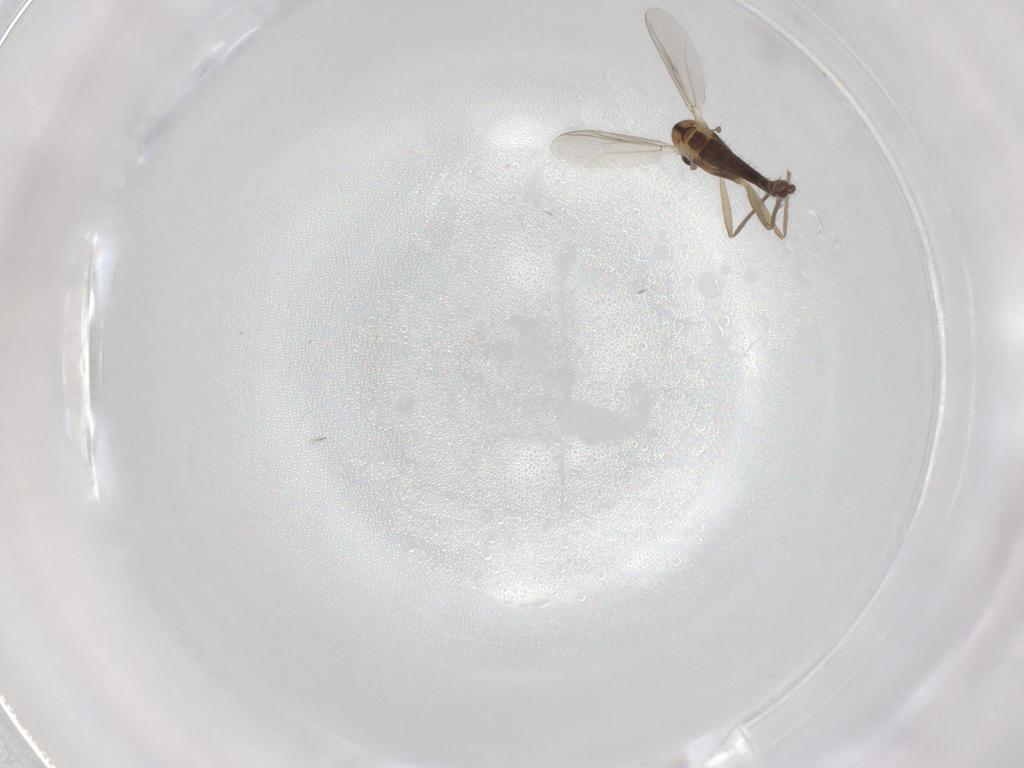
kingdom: Animalia
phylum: Arthropoda
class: Insecta
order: Diptera
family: Chironomidae
